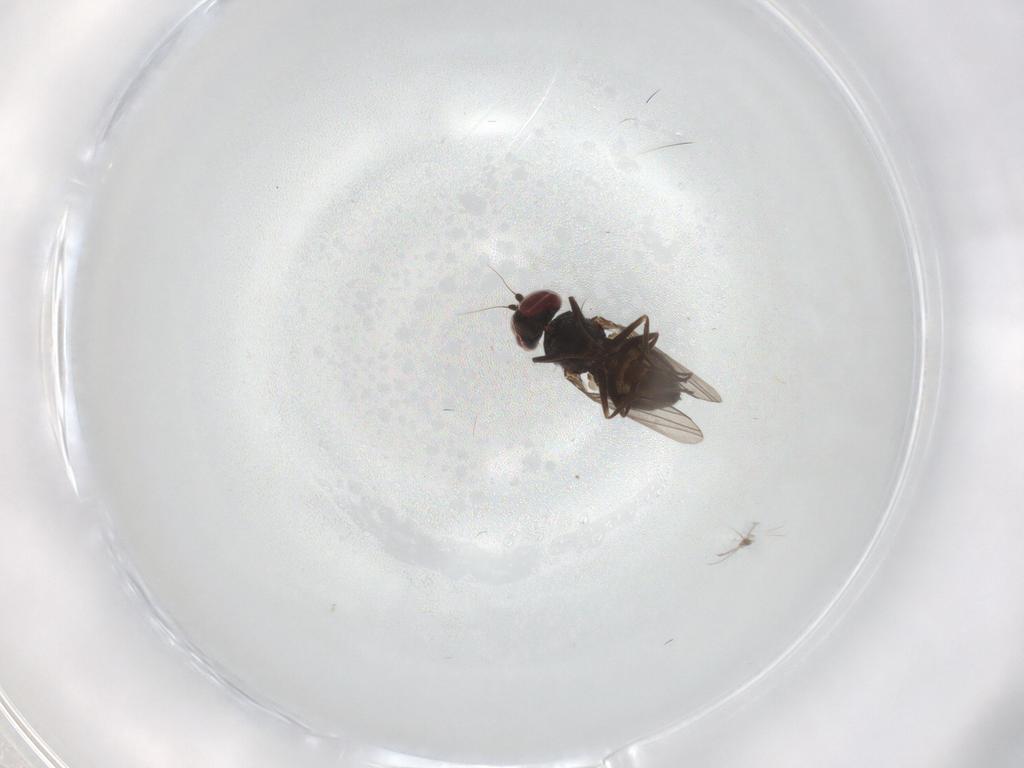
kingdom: Animalia
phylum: Arthropoda
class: Insecta
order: Diptera
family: Dolichopodidae
